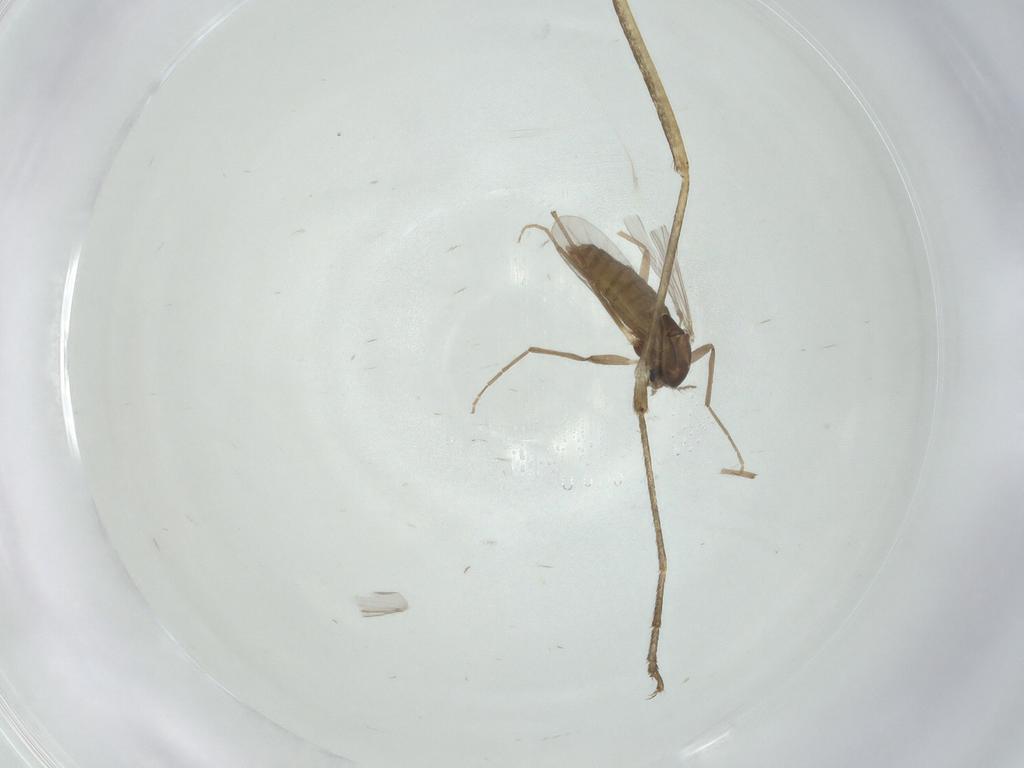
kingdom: Animalia
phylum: Arthropoda
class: Insecta
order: Diptera
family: Chironomidae
